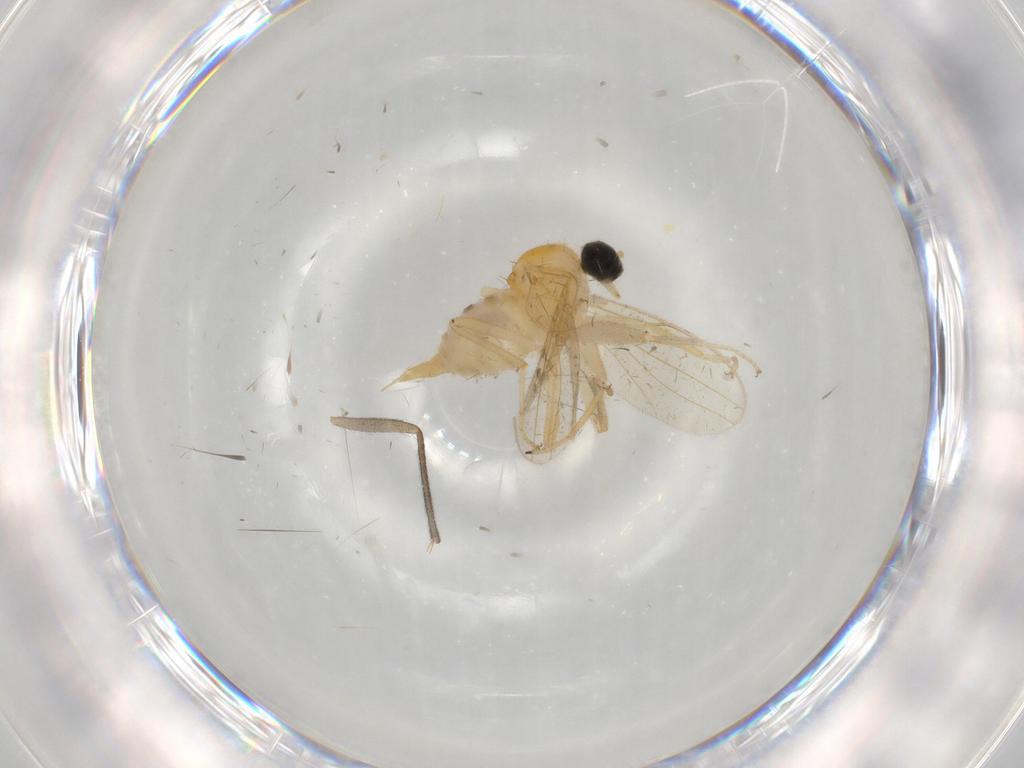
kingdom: Animalia
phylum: Arthropoda
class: Insecta
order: Diptera
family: Sciaridae
